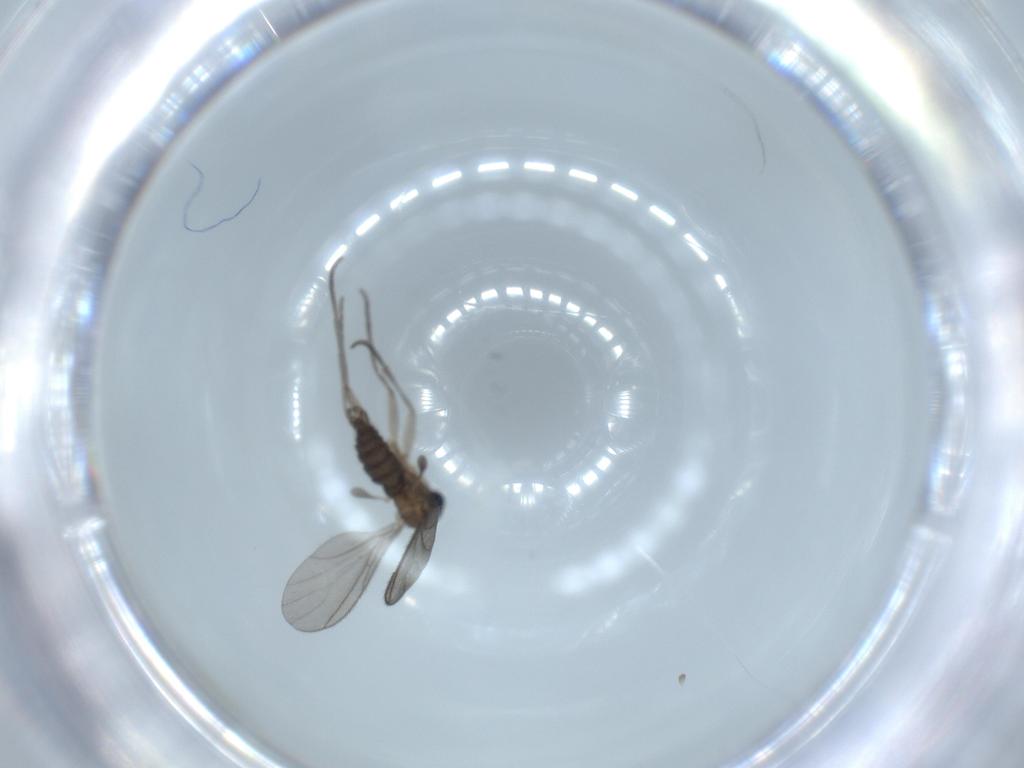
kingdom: Animalia
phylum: Arthropoda
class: Insecta
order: Diptera
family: Sciaridae
